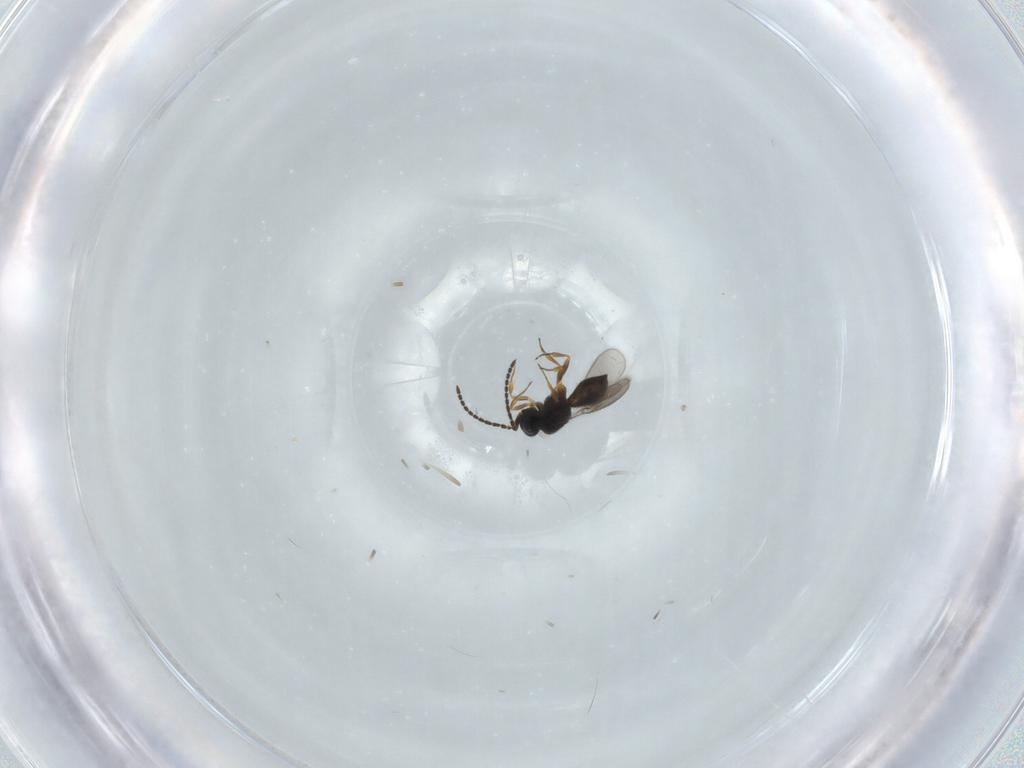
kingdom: Animalia
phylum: Arthropoda
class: Insecta
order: Hymenoptera
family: Scelionidae
